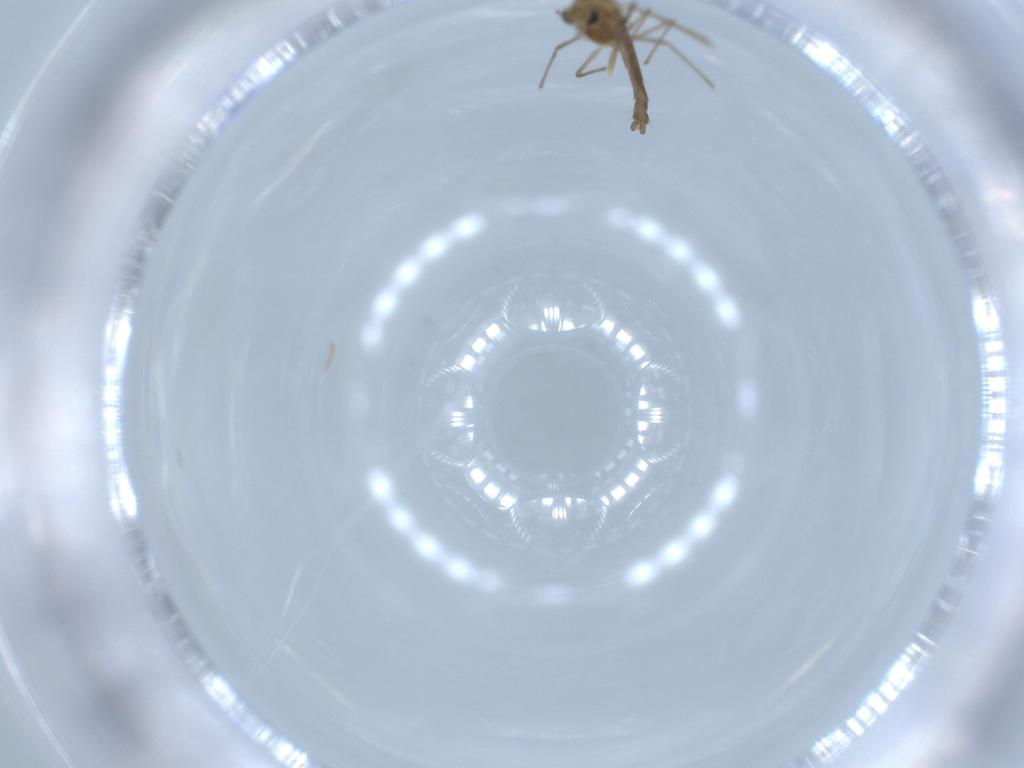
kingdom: Animalia
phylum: Arthropoda
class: Insecta
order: Diptera
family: Chironomidae
